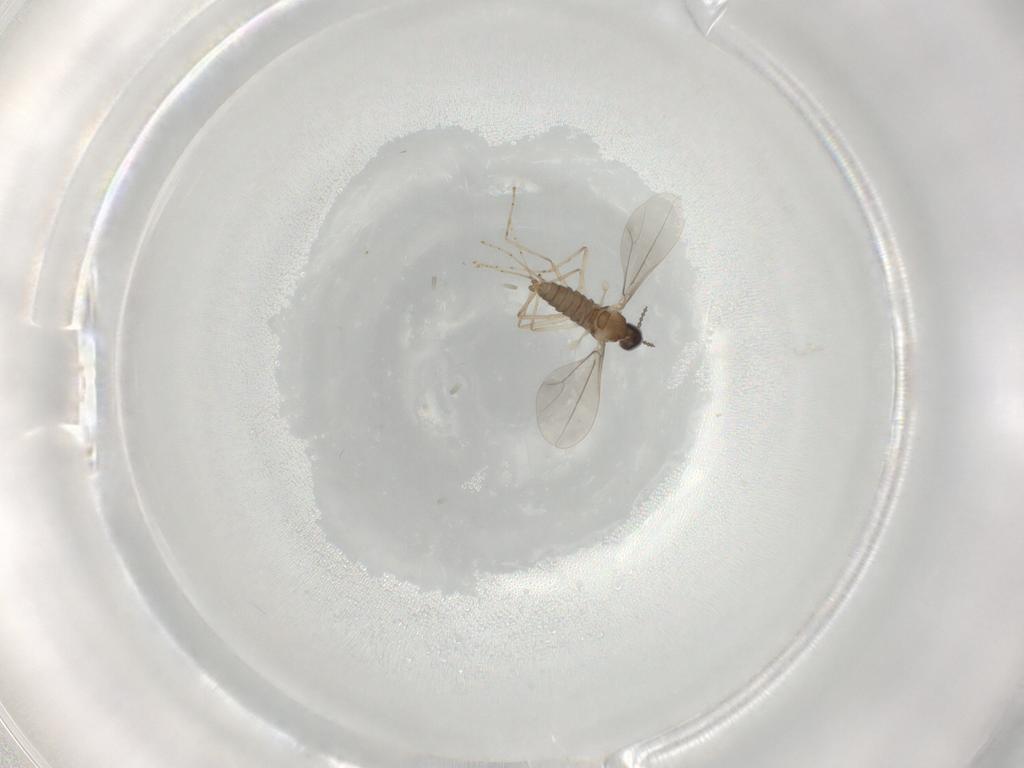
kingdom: Animalia
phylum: Arthropoda
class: Insecta
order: Diptera
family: Cecidomyiidae
